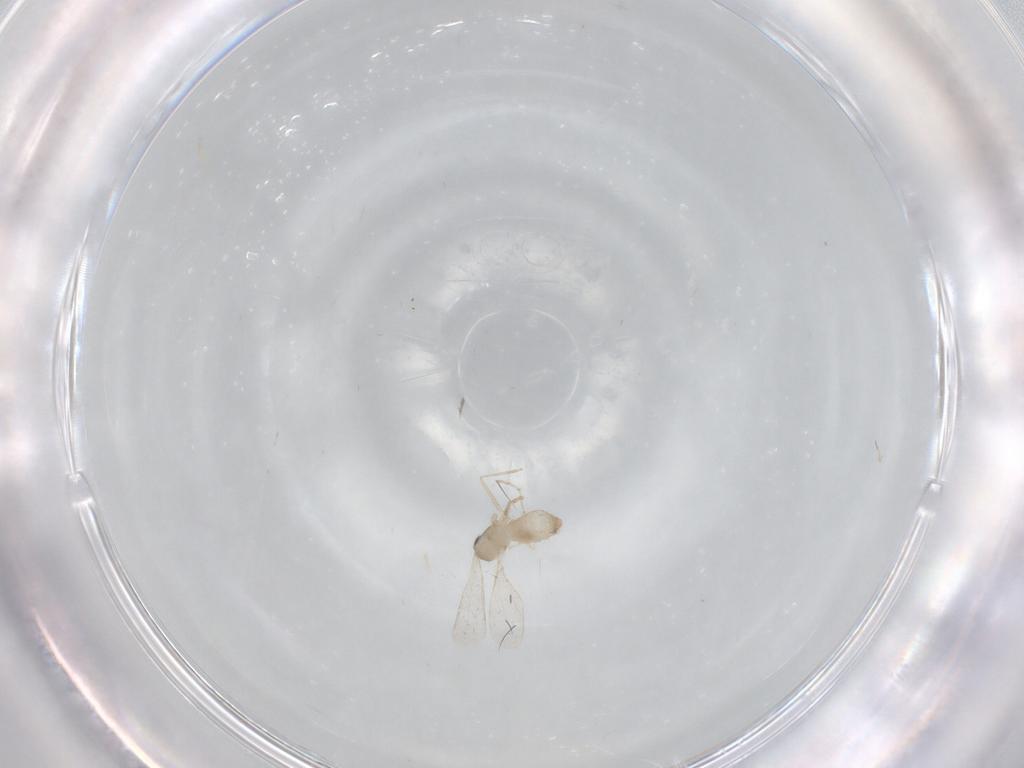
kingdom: Animalia
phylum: Arthropoda
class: Insecta
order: Diptera
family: Cecidomyiidae
